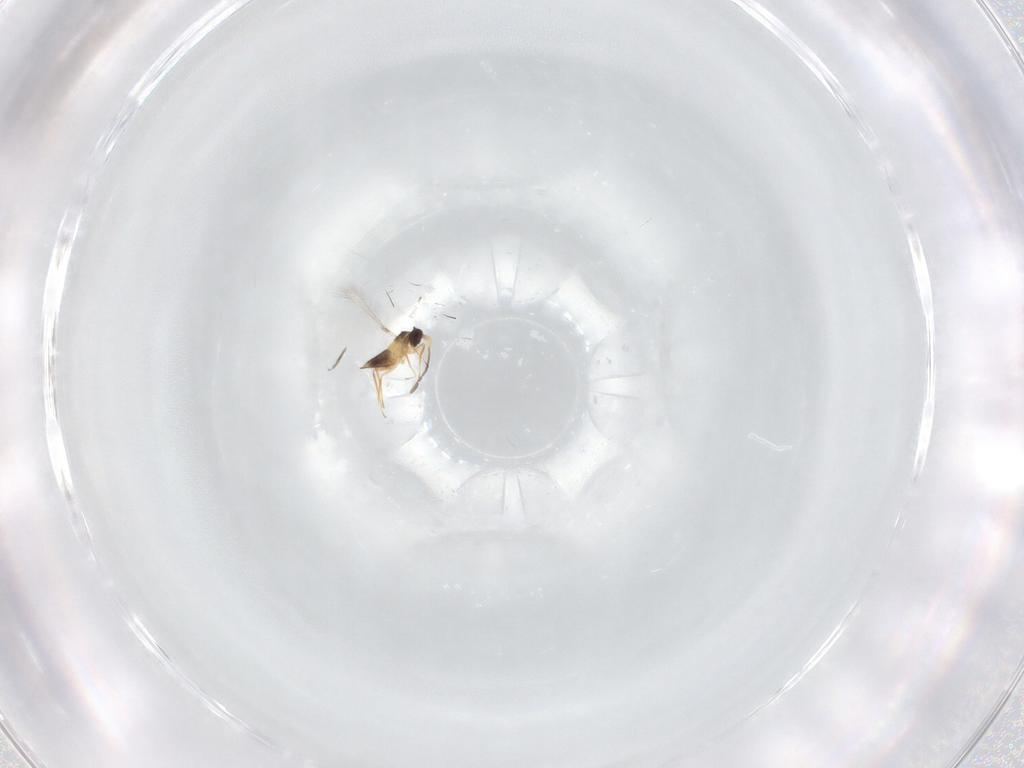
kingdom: Animalia
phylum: Arthropoda
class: Insecta
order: Hymenoptera
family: Mymaridae
